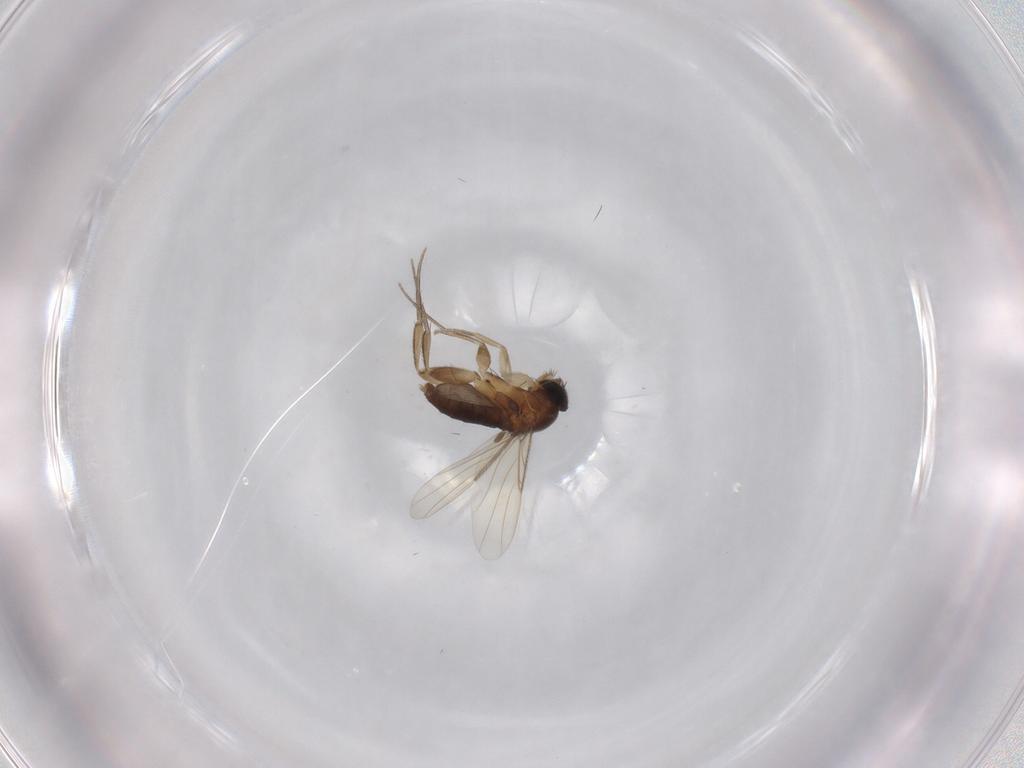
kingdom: Animalia
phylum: Arthropoda
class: Insecta
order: Diptera
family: Phoridae
